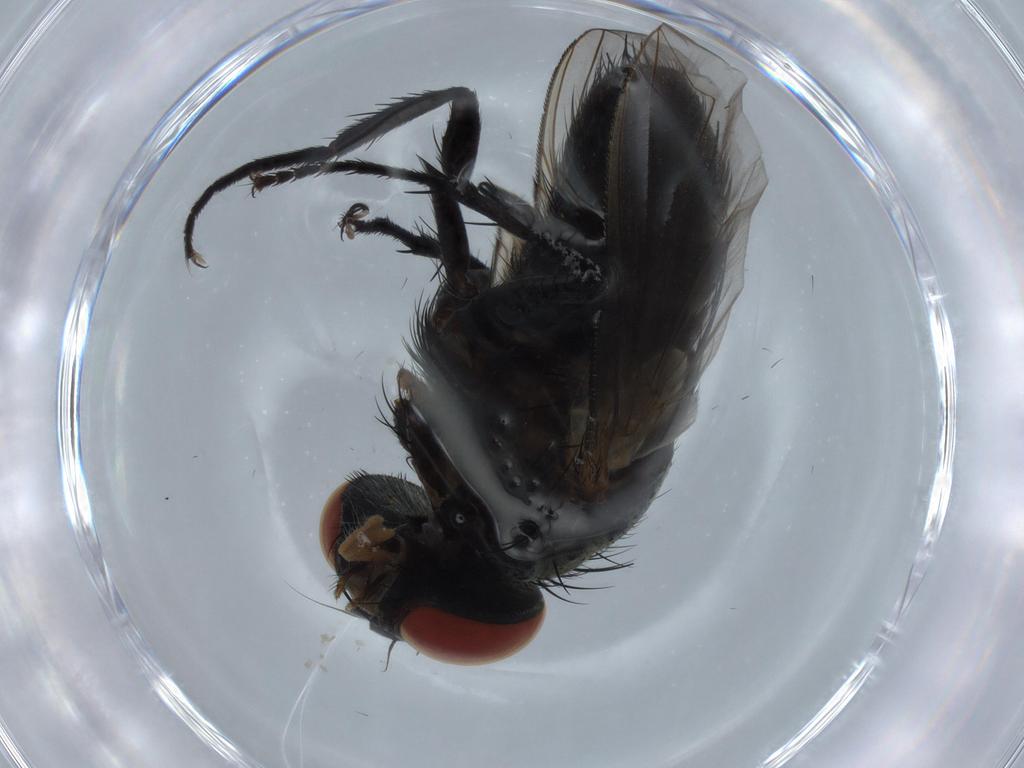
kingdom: Animalia
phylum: Arthropoda
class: Insecta
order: Diptera
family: Sarcophagidae
